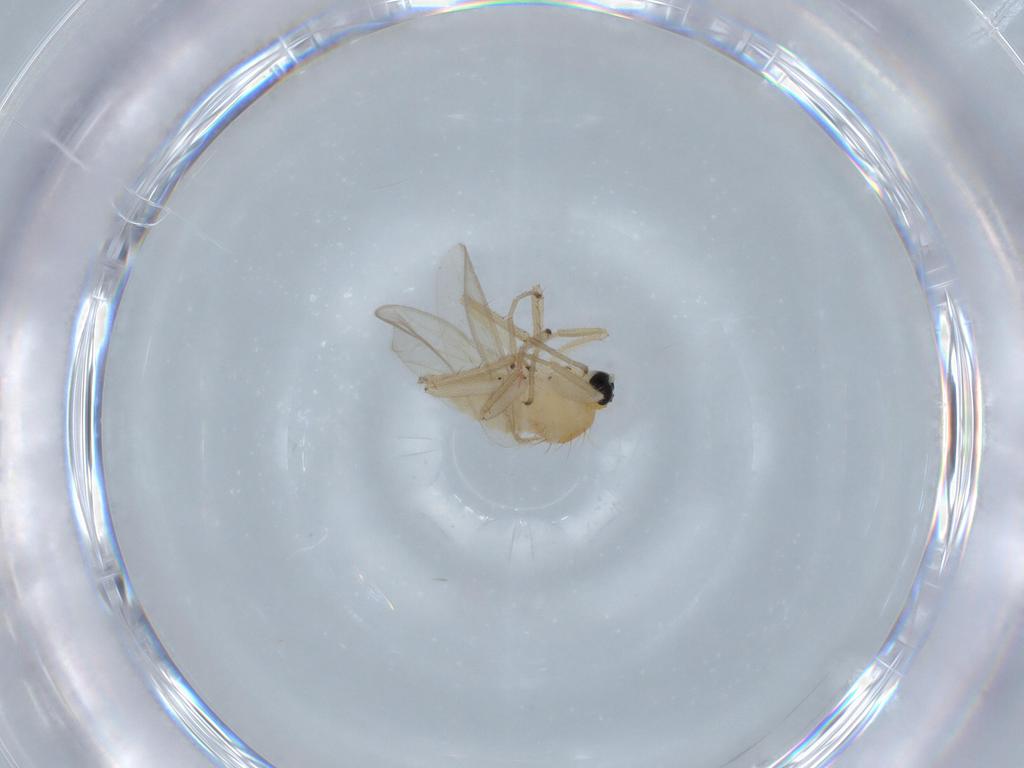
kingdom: Animalia
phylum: Arthropoda
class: Insecta
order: Diptera
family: Hybotidae
